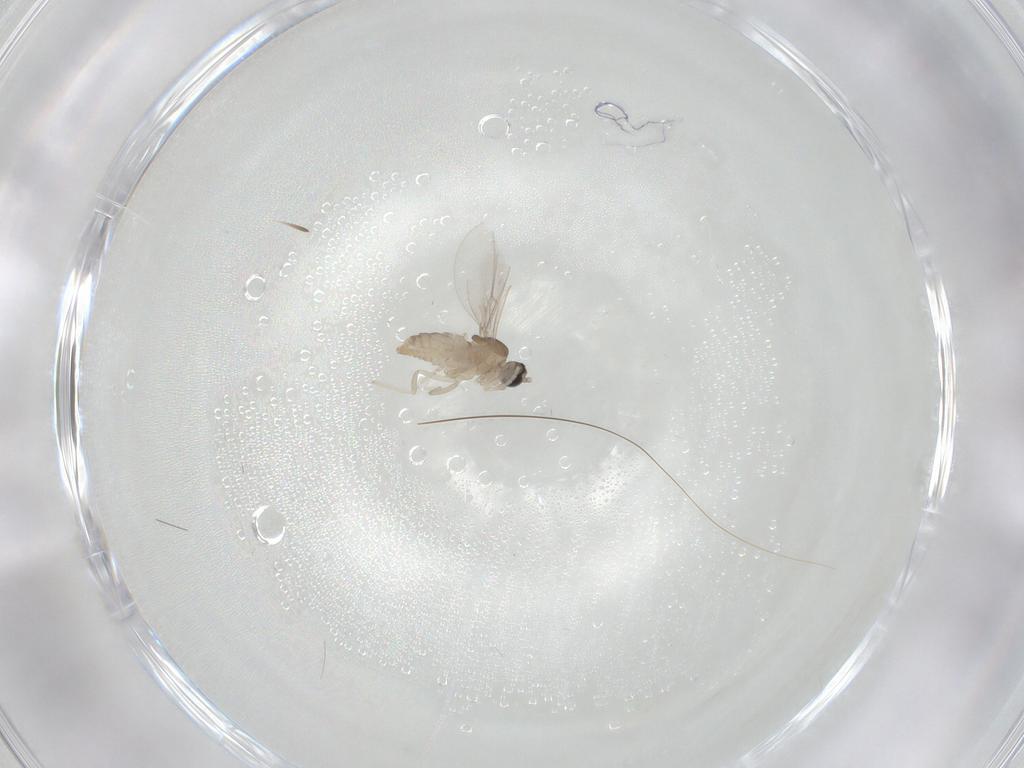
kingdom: Animalia
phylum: Arthropoda
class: Insecta
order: Diptera
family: Cecidomyiidae
